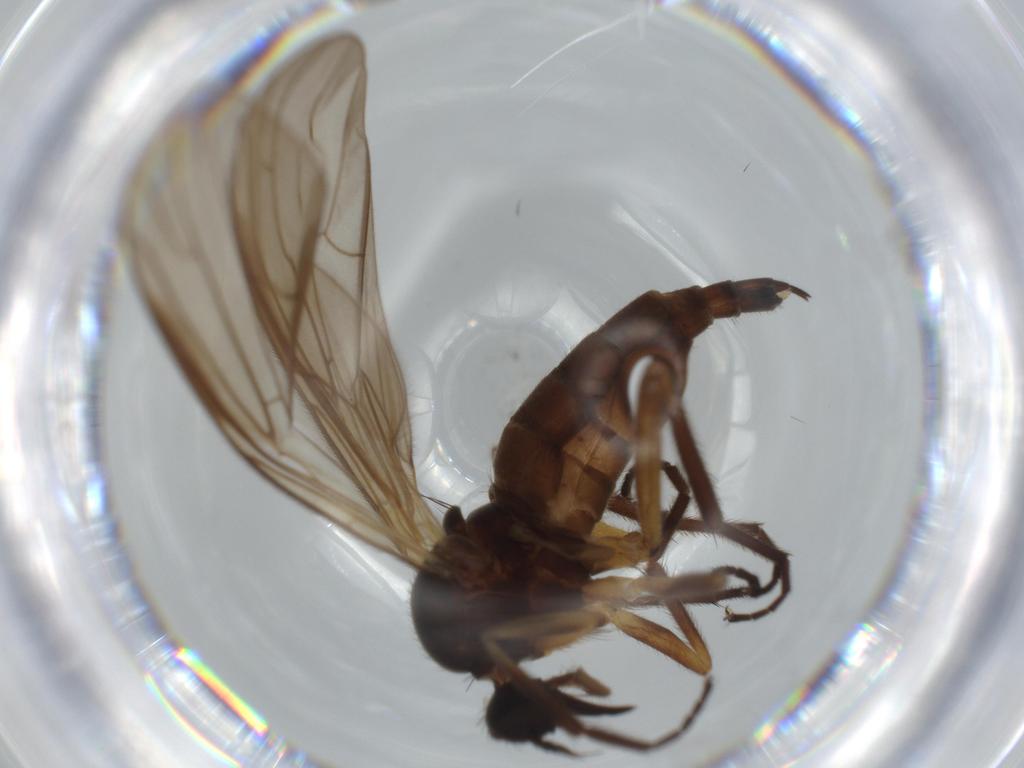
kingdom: Animalia
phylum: Arthropoda
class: Insecta
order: Diptera
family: Empididae
